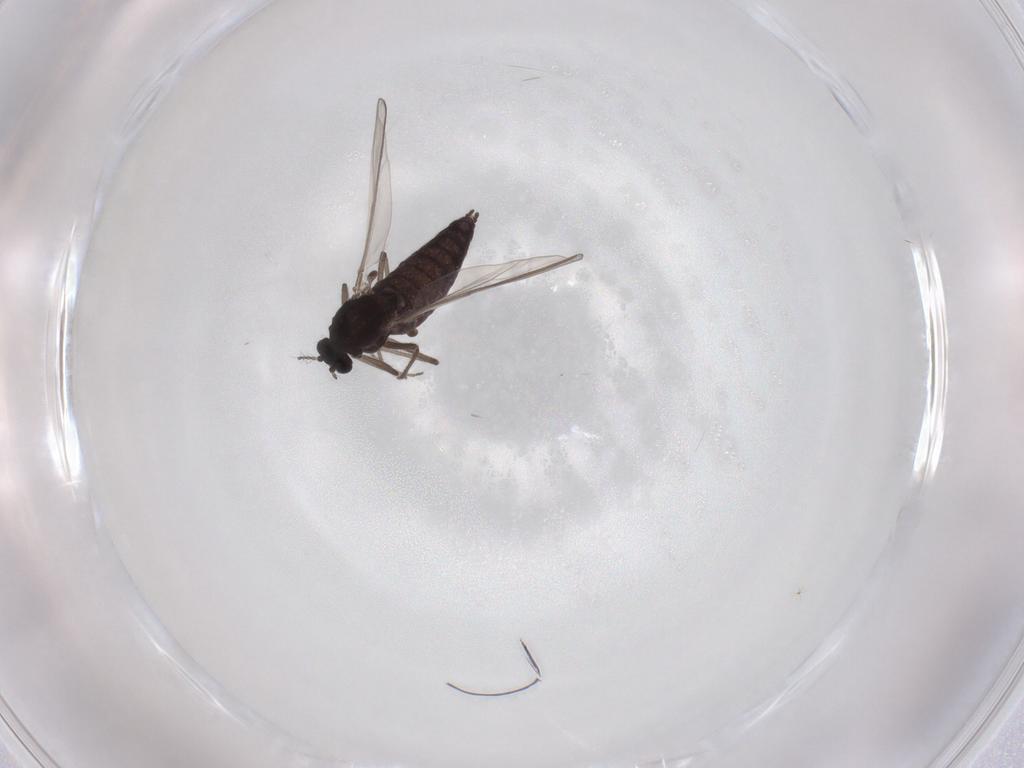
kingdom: Animalia
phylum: Arthropoda
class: Insecta
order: Diptera
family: Chironomidae
